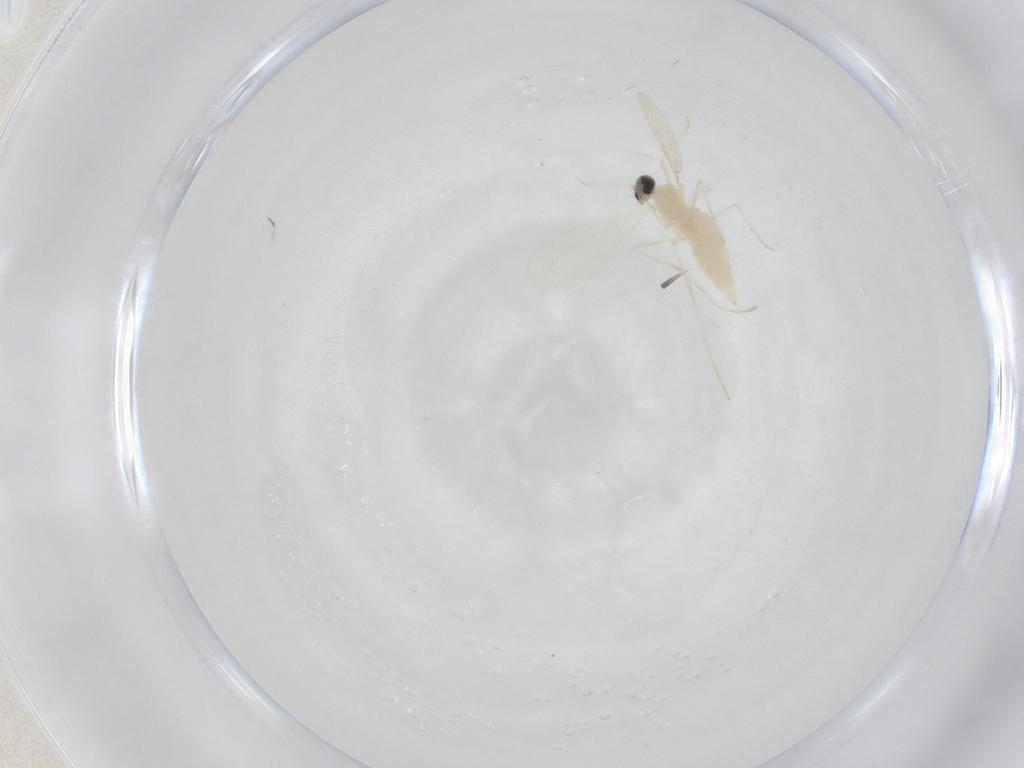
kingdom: Animalia
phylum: Arthropoda
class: Insecta
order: Diptera
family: Cecidomyiidae
